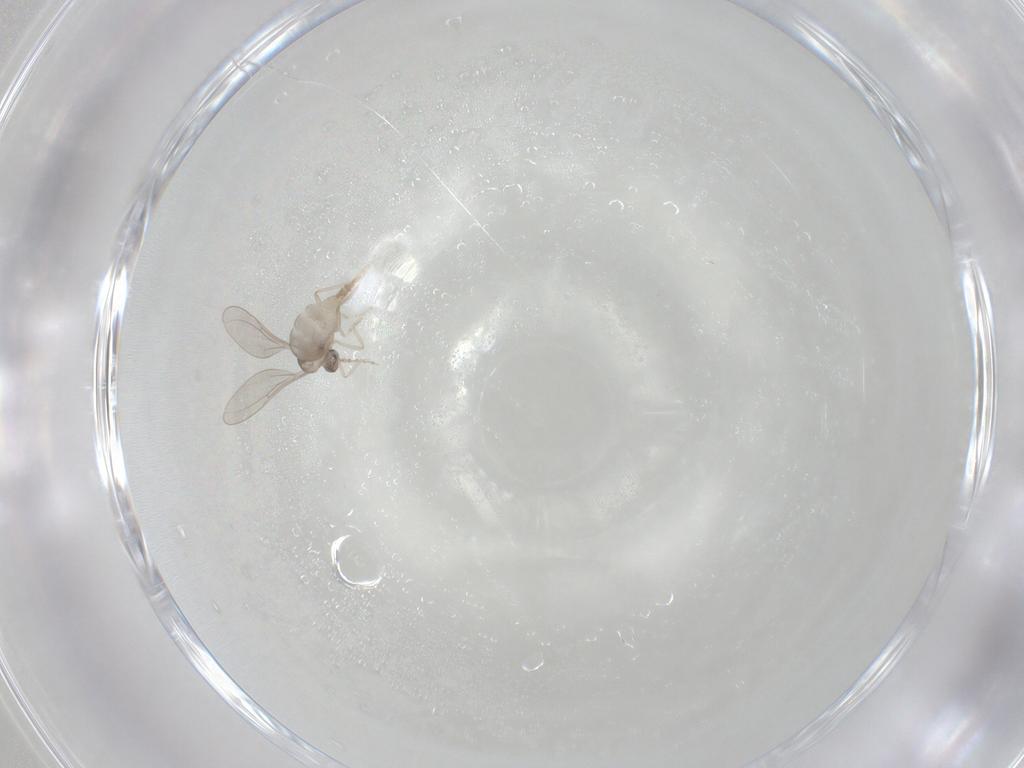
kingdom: Animalia
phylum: Arthropoda
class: Insecta
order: Diptera
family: Cecidomyiidae
